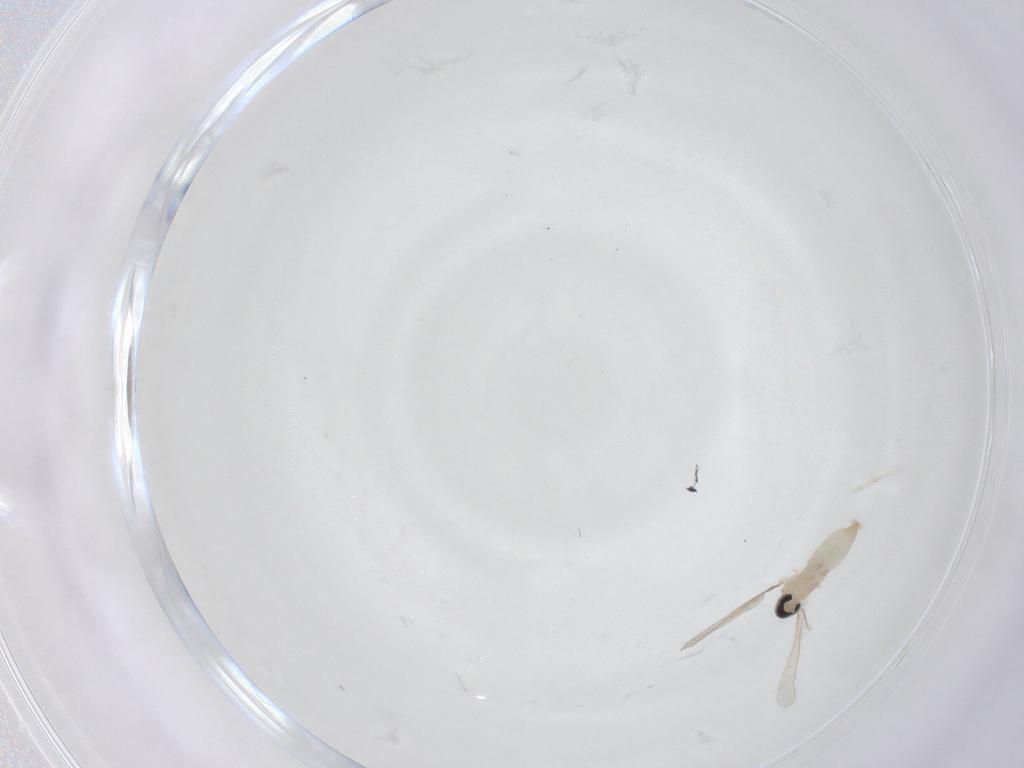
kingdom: Animalia
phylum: Arthropoda
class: Insecta
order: Diptera
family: Cecidomyiidae
